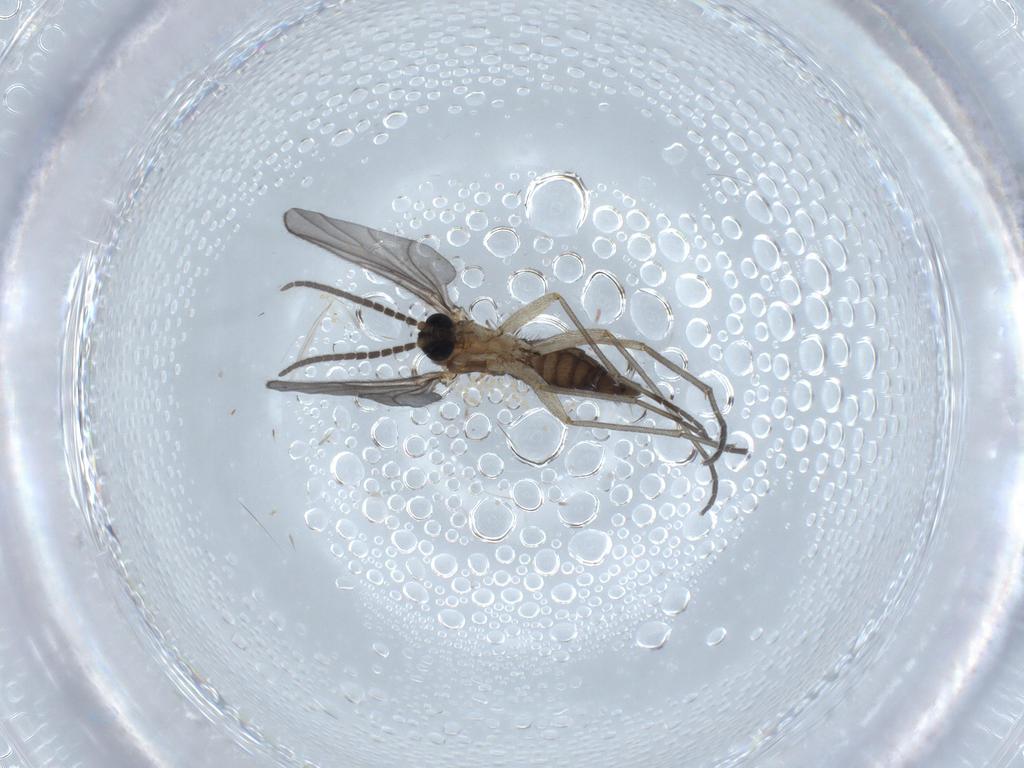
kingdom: Animalia
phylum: Arthropoda
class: Insecta
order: Diptera
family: Sciaridae
